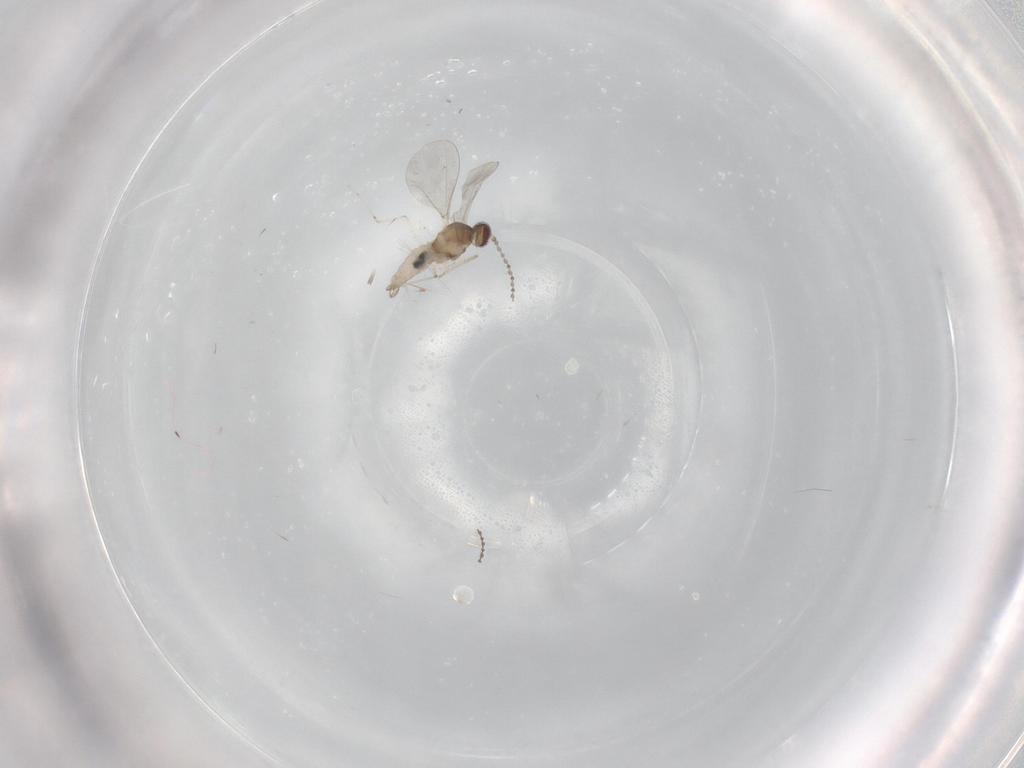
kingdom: Animalia
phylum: Arthropoda
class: Insecta
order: Diptera
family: Cecidomyiidae
